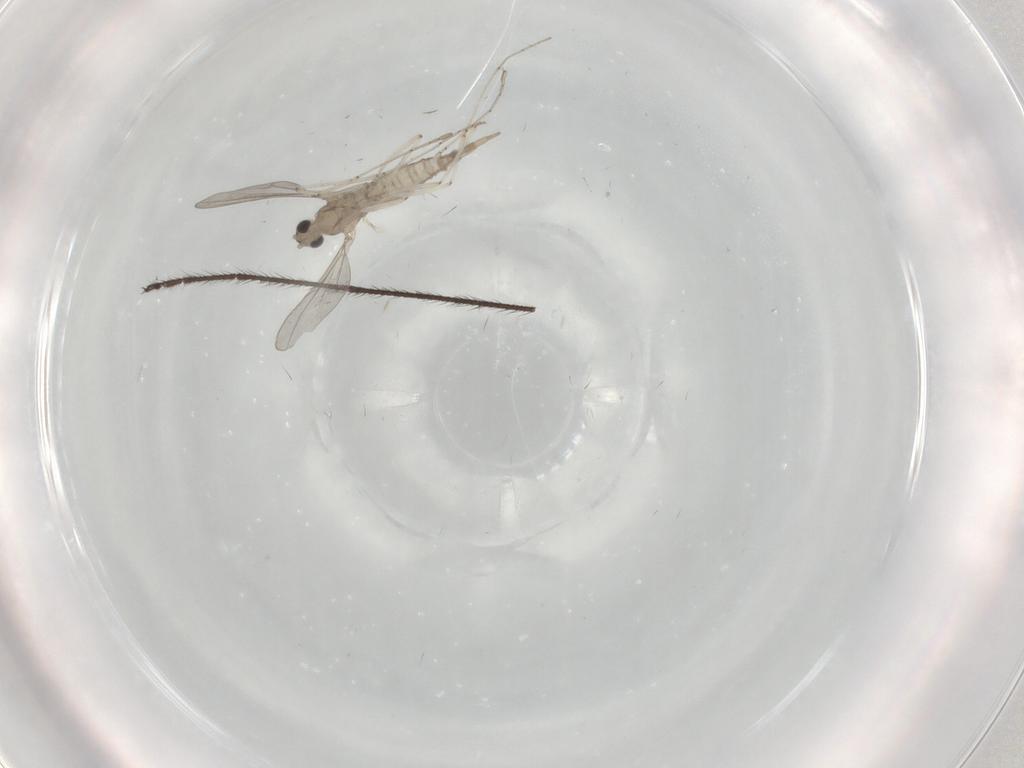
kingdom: Animalia
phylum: Arthropoda
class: Insecta
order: Diptera
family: Cecidomyiidae
